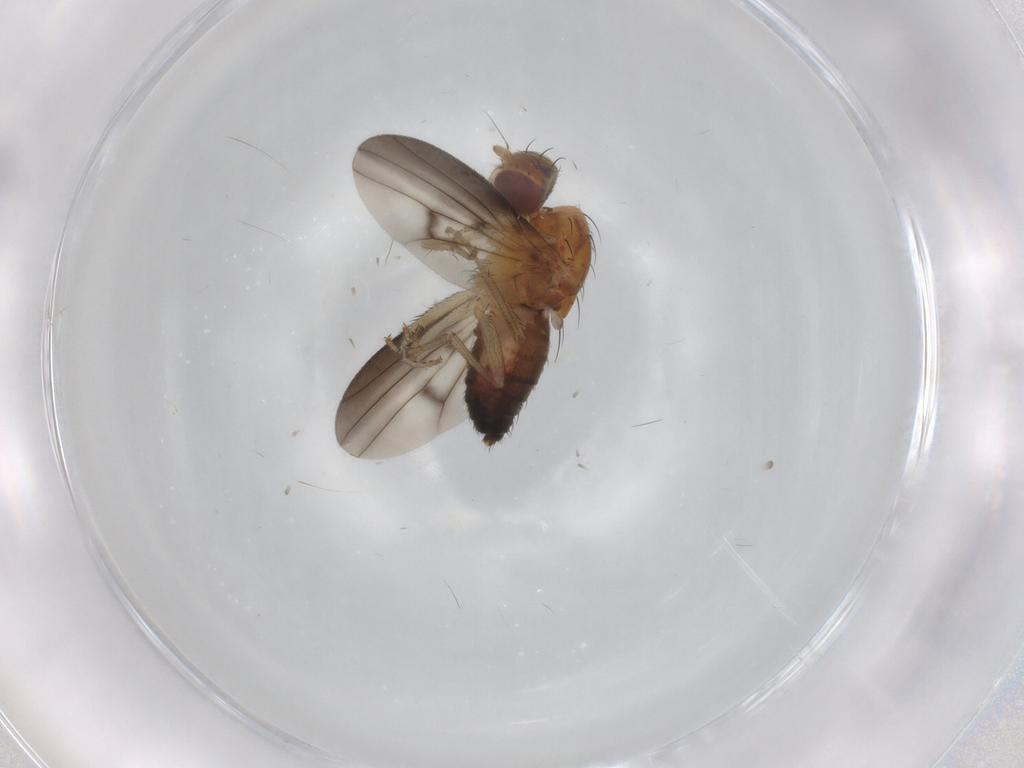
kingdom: Animalia
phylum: Arthropoda
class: Insecta
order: Diptera
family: Heleomyzidae
